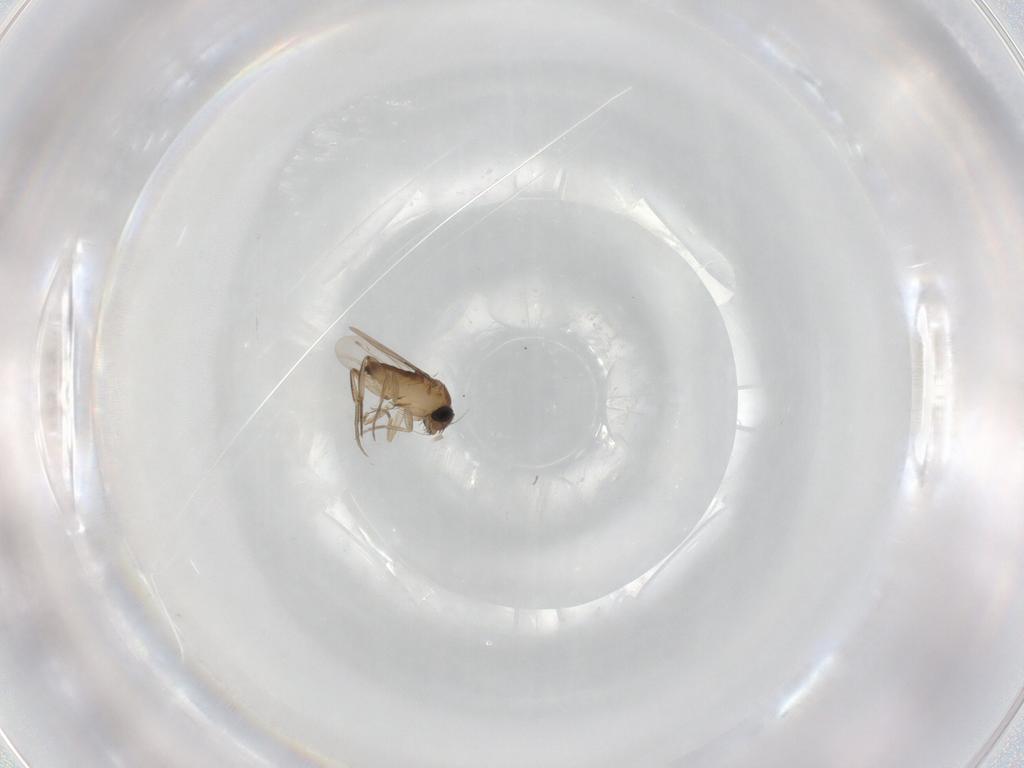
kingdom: Animalia
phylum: Arthropoda
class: Insecta
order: Diptera
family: Phoridae
